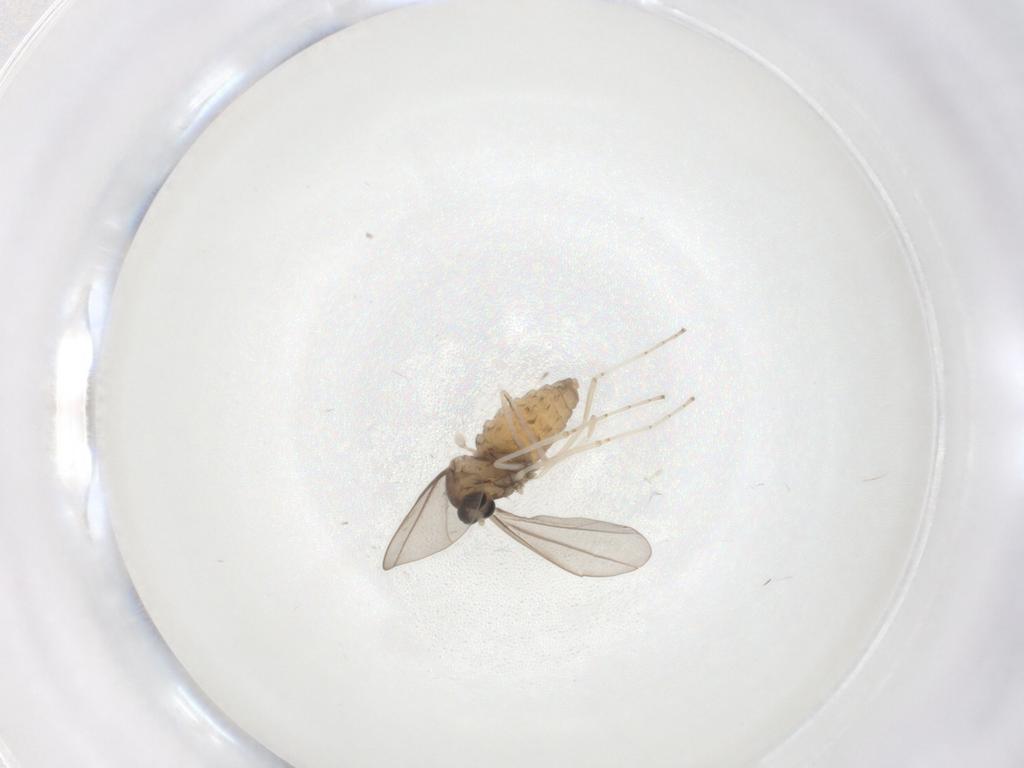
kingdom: Animalia
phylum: Arthropoda
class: Insecta
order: Diptera
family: Cecidomyiidae
